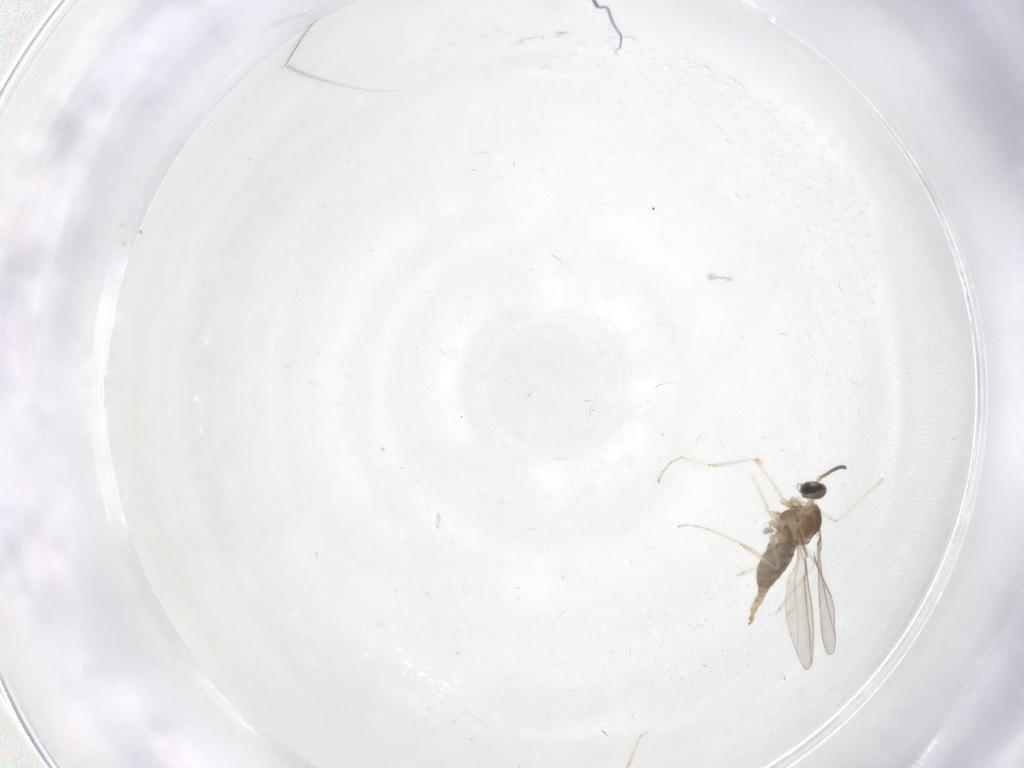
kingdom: Animalia
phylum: Arthropoda
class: Insecta
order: Diptera
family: Cecidomyiidae
